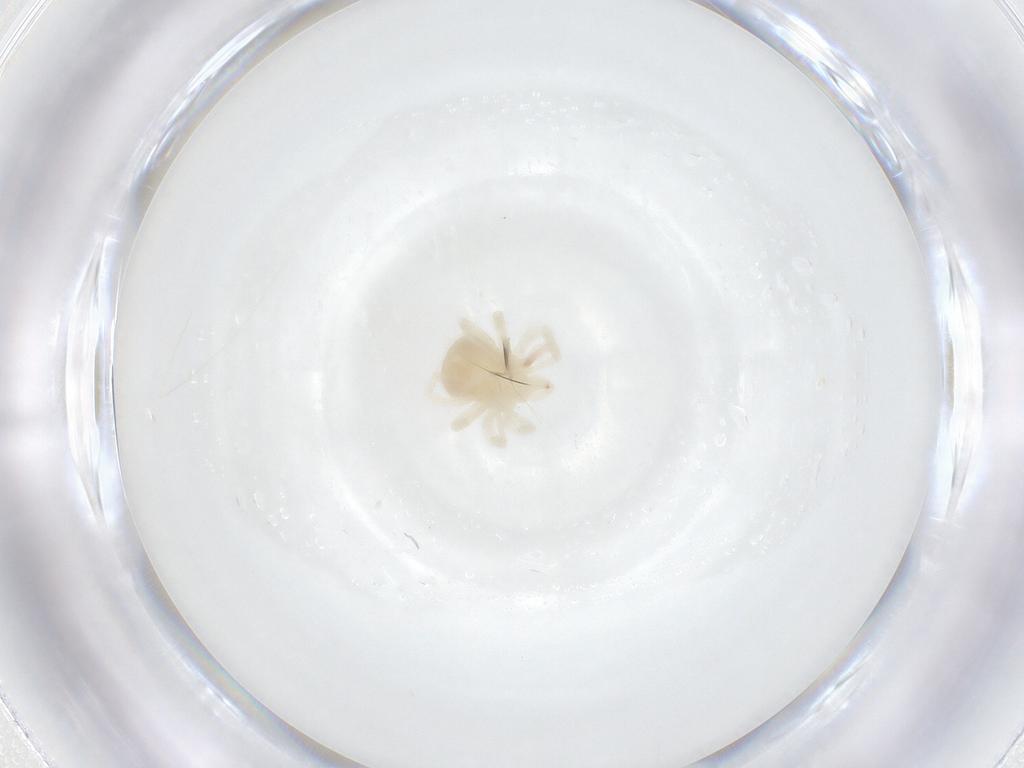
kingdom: Animalia
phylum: Arthropoda
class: Arachnida
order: Trombidiformes
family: Anystidae
